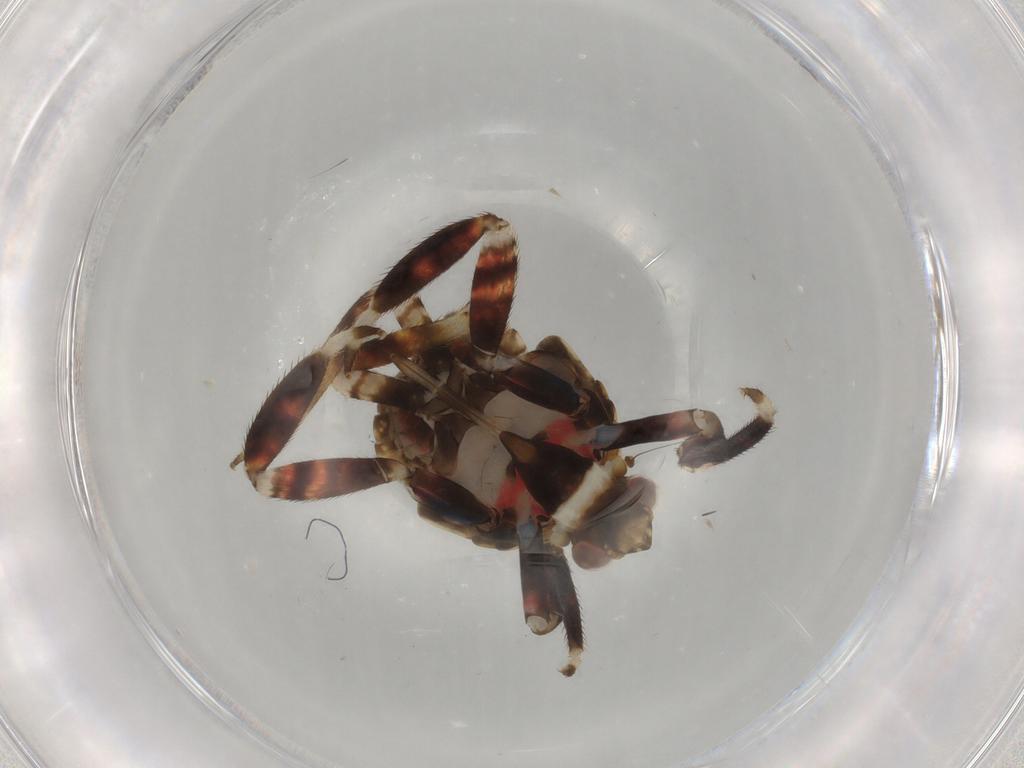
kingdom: Animalia
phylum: Arthropoda
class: Insecta
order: Hemiptera
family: Fulgoridae
